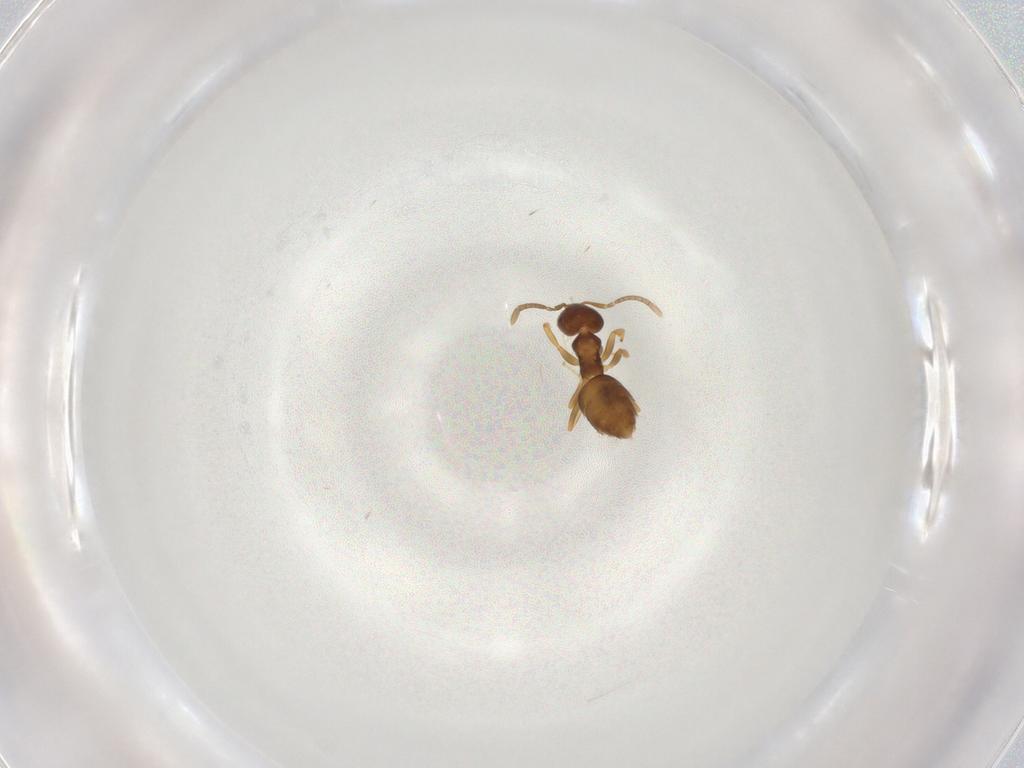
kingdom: Animalia
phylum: Arthropoda
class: Insecta
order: Hymenoptera
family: Formicidae
